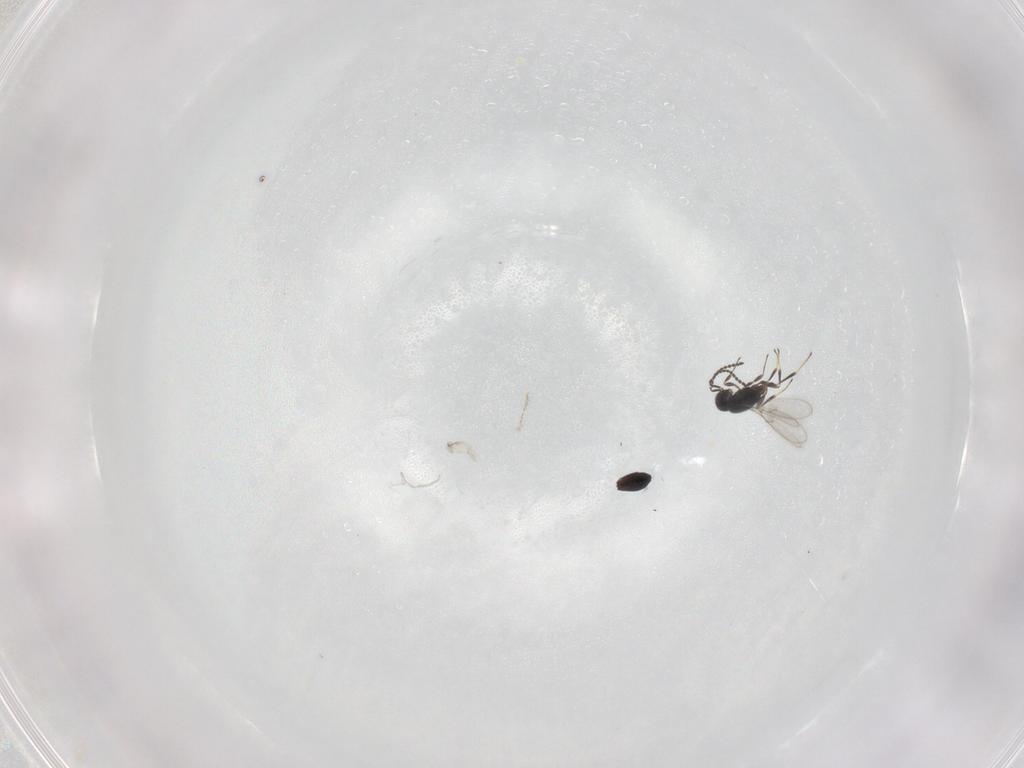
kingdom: Animalia
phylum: Arthropoda
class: Insecta
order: Hymenoptera
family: Scelionidae
